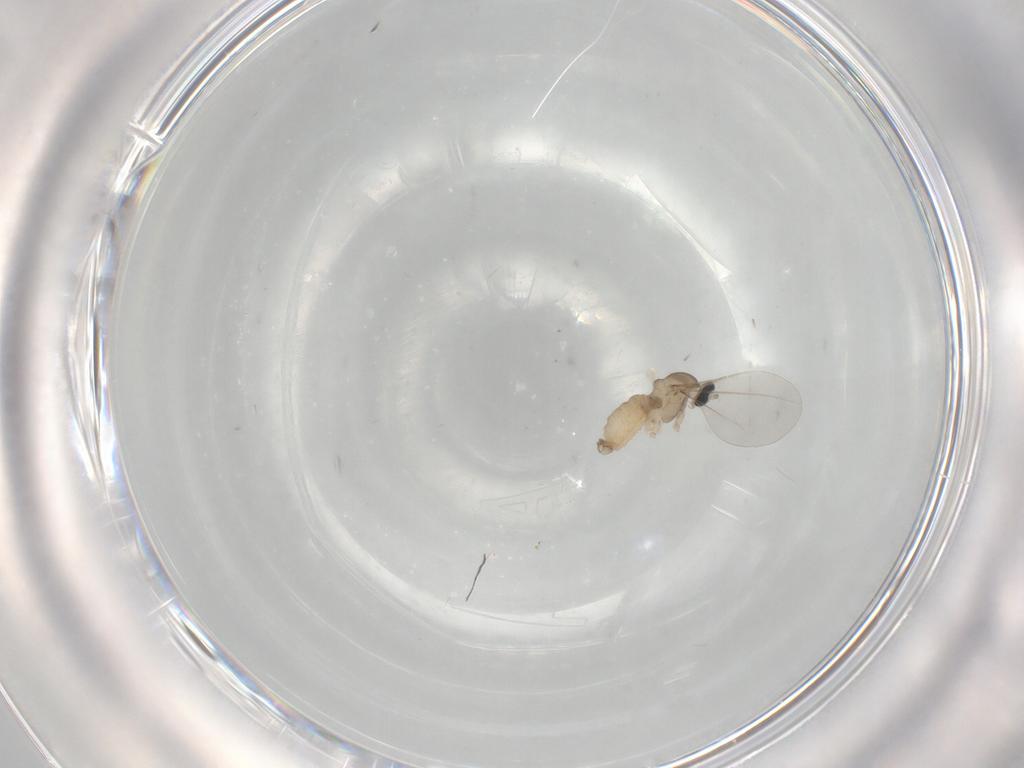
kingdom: Animalia
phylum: Arthropoda
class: Insecta
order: Diptera
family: Cecidomyiidae
